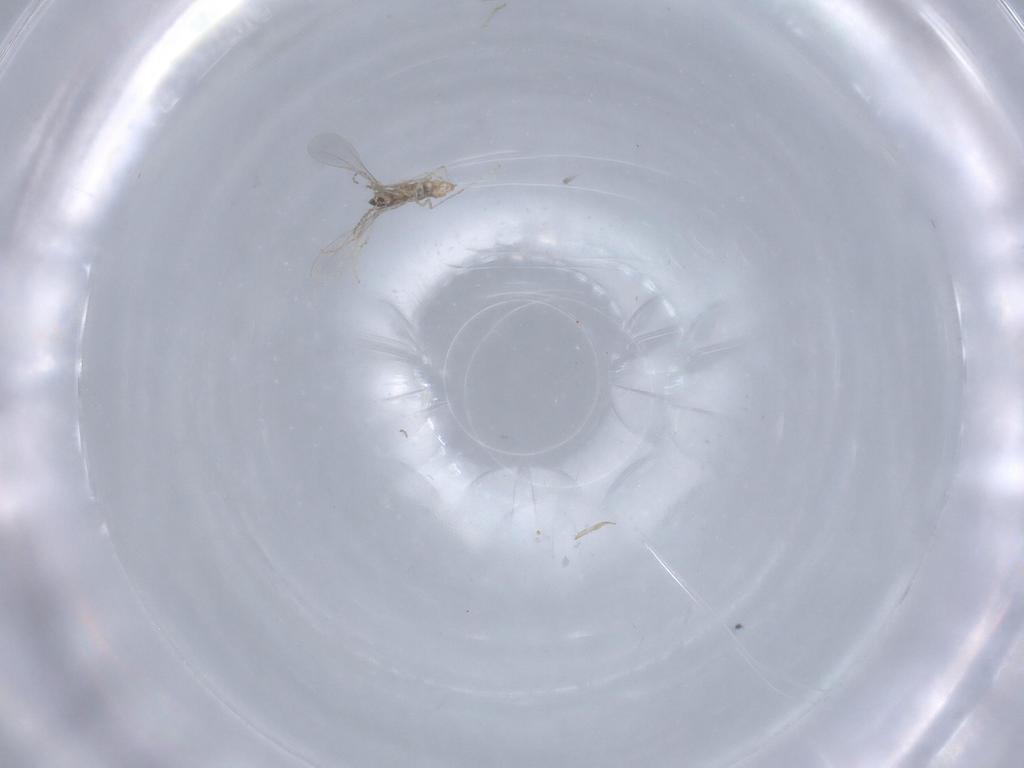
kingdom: Animalia
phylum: Arthropoda
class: Insecta
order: Diptera
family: Cecidomyiidae
